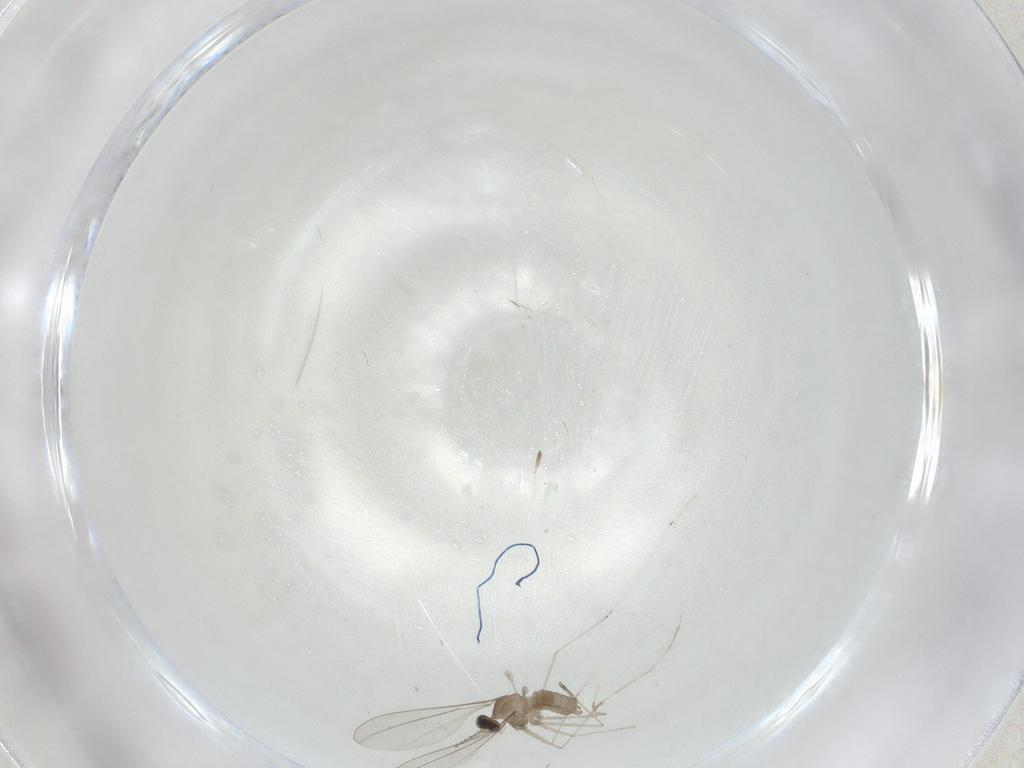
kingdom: Animalia
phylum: Arthropoda
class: Insecta
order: Diptera
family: Cecidomyiidae
